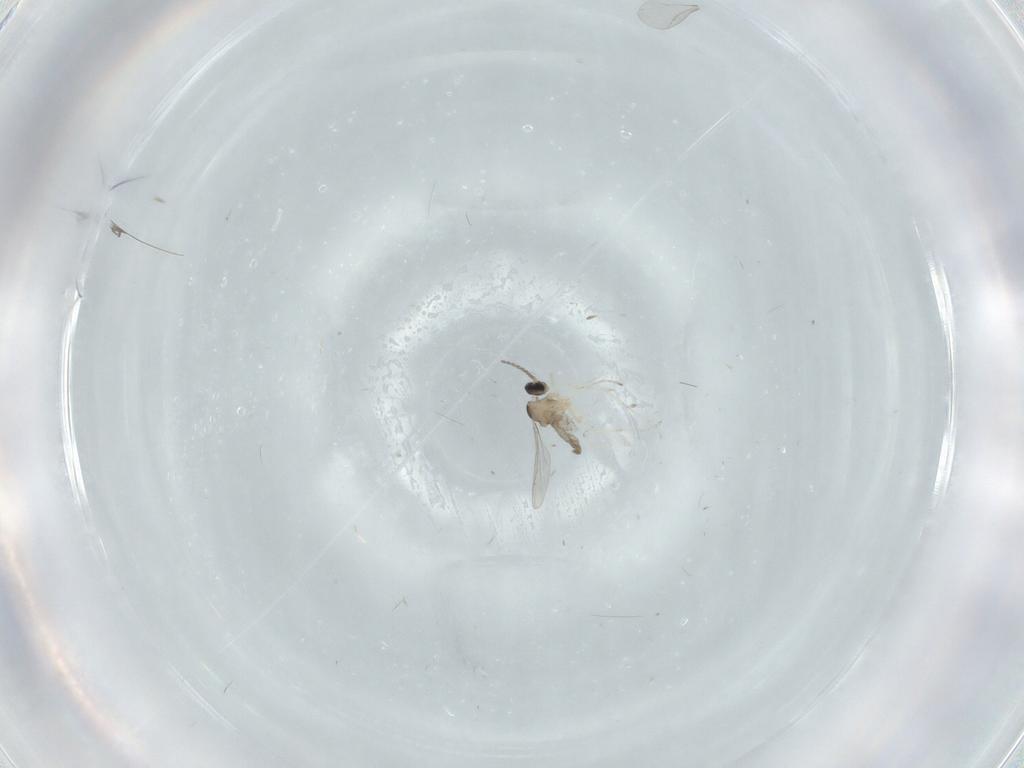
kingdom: Animalia
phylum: Arthropoda
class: Insecta
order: Diptera
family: Cecidomyiidae
